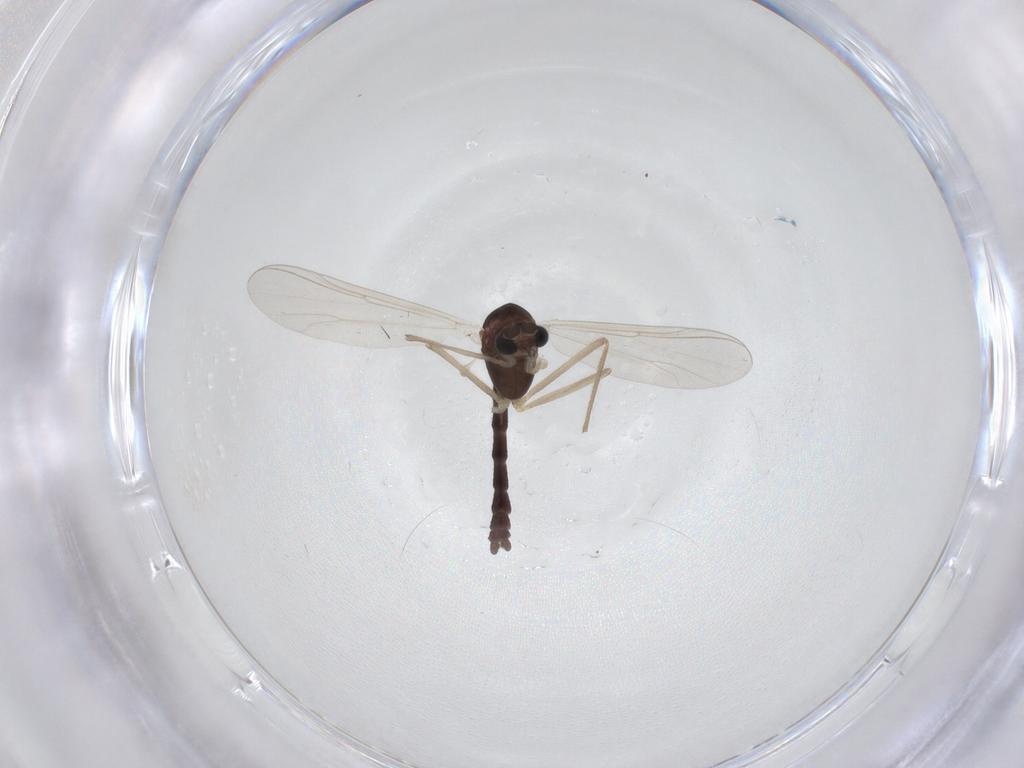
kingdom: Animalia
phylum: Arthropoda
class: Insecta
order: Diptera
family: Chironomidae
